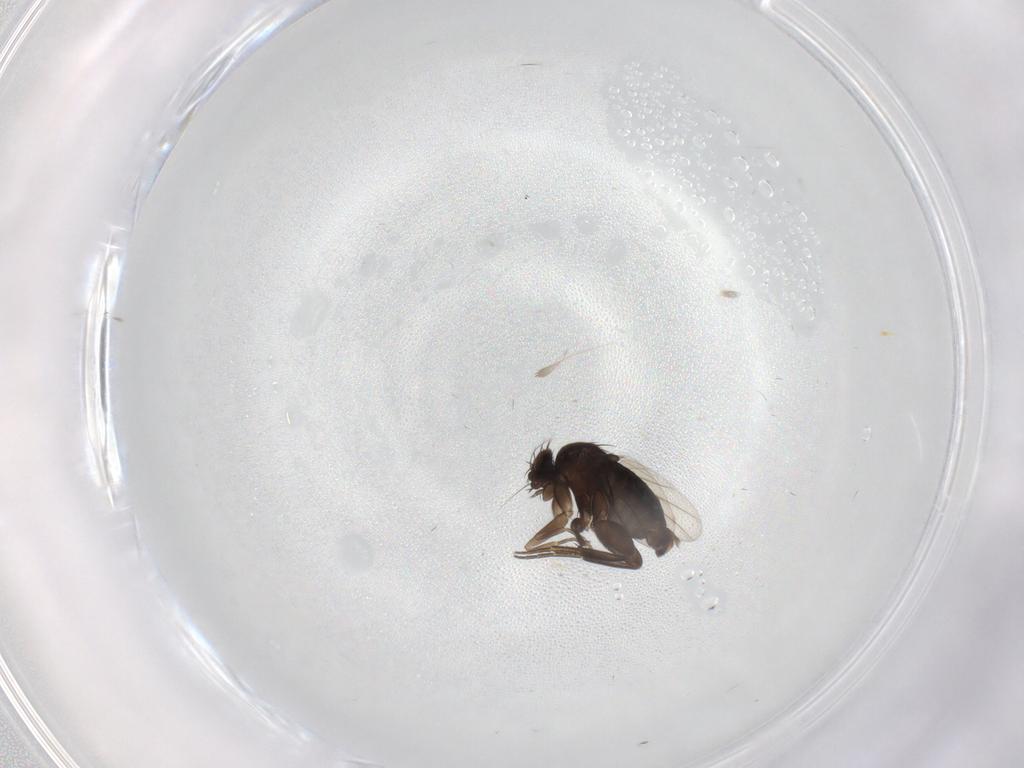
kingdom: Animalia
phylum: Arthropoda
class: Insecta
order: Diptera
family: Phoridae
